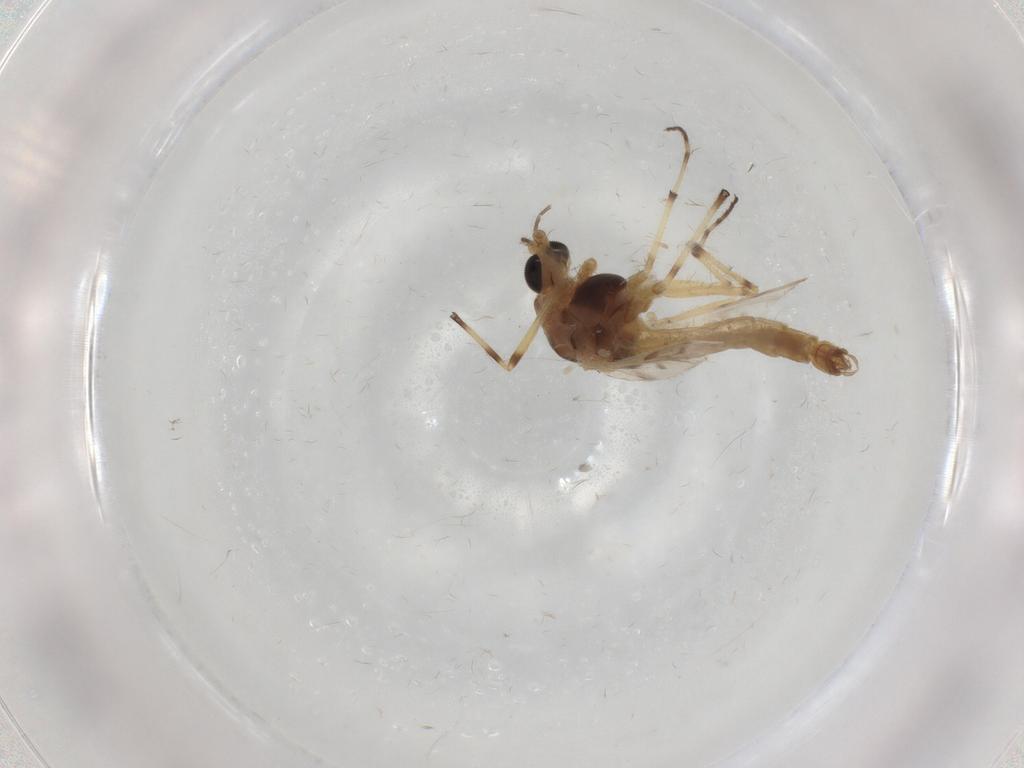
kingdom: Animalia
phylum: Arthropoda
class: Insecta
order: Diptera
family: Chironomidae
